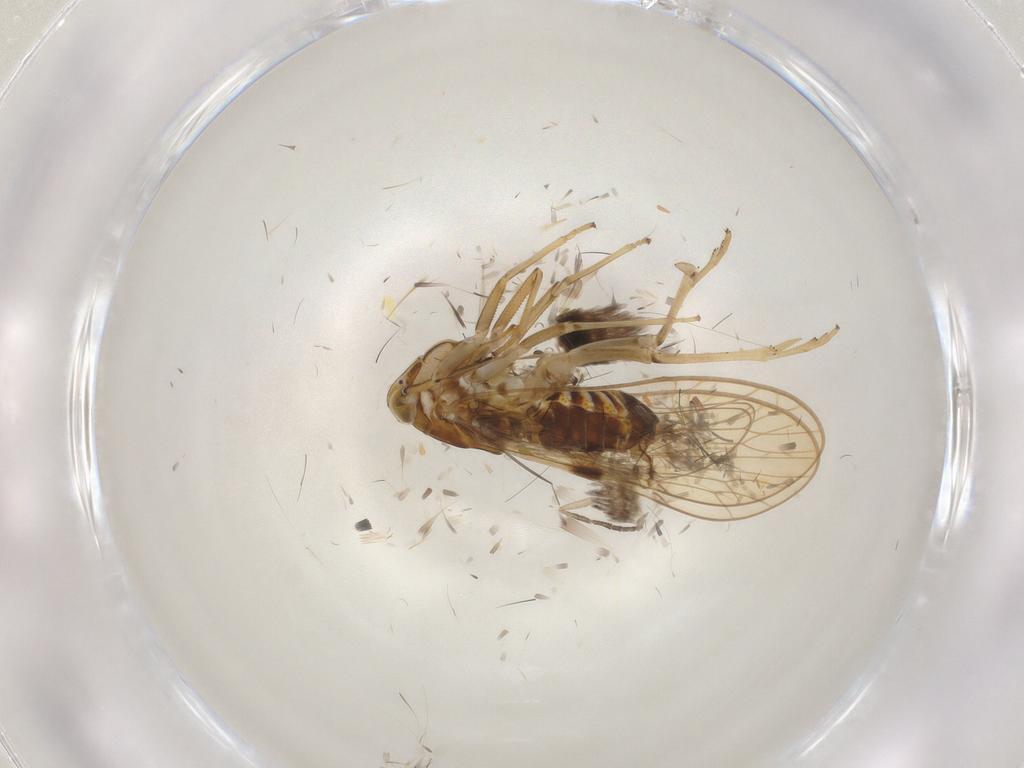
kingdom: Animalia
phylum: Arthropoda
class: Insecta
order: Hemiptera
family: Delphacidae
